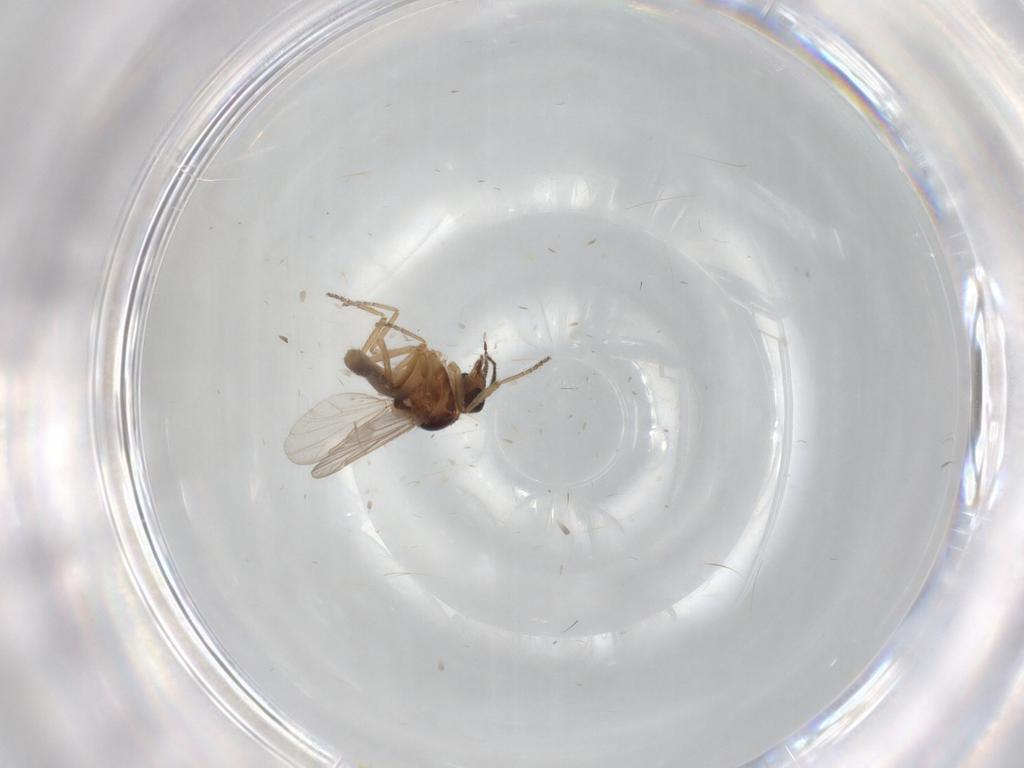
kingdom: Animalia
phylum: Arthropoda
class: Insecta
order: Diptera
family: Ceratopogonidae
